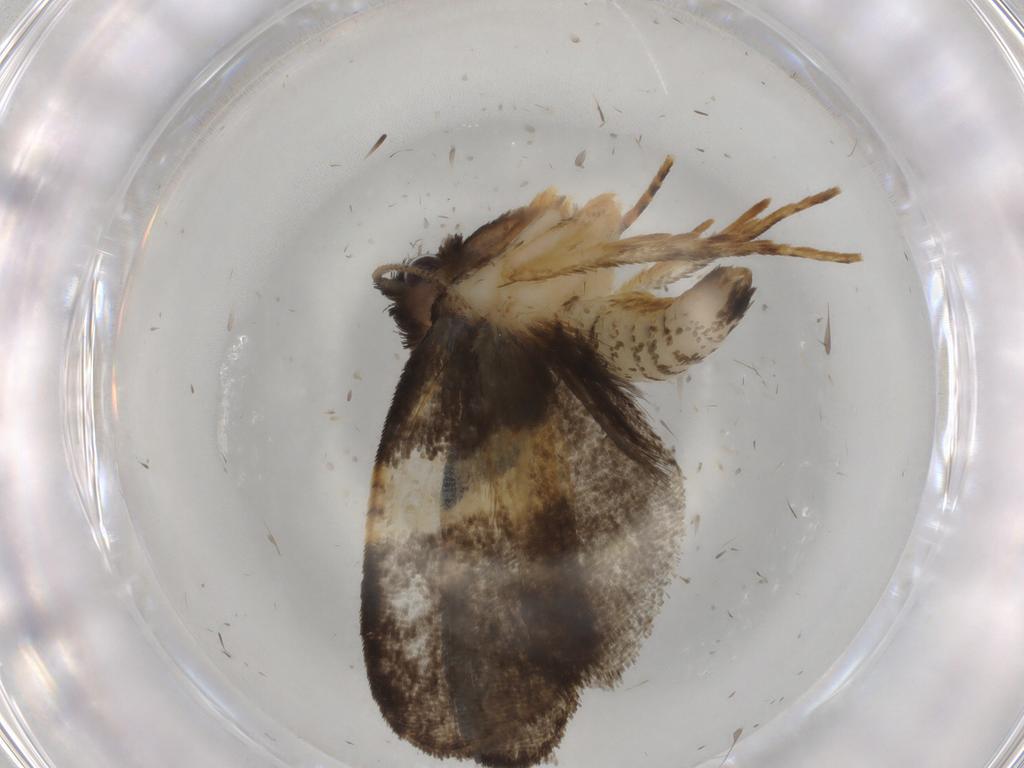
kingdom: Animalia
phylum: Arthropoda
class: Insecta
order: Lepidoptera
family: Psychidae
